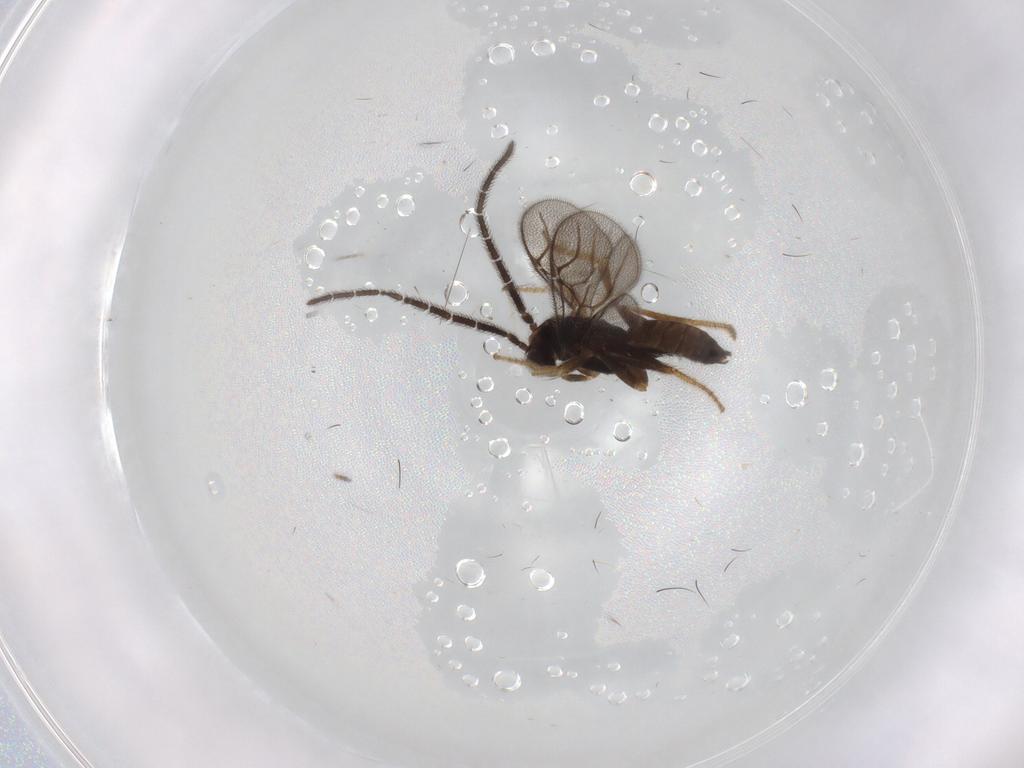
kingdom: Animalia
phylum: Arthropoda
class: Insecta
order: Hymenoptera
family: Dryinidae
